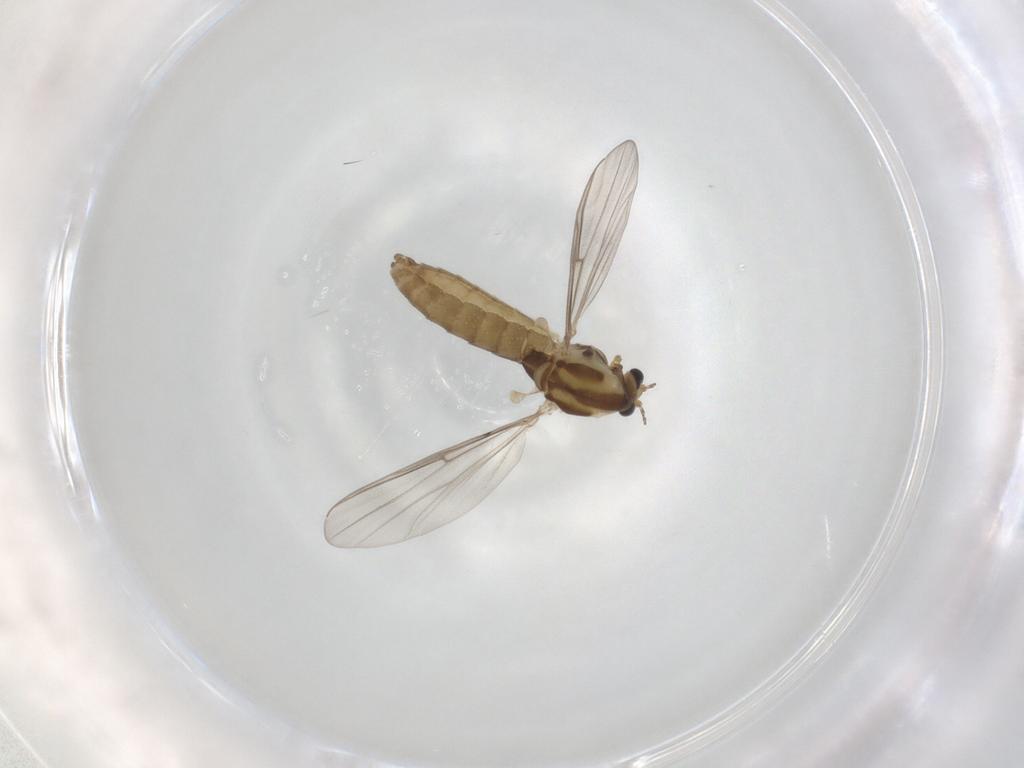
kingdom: Animalia
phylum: Arthropoda
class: Insecta
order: Diptera
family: Chironomidae
